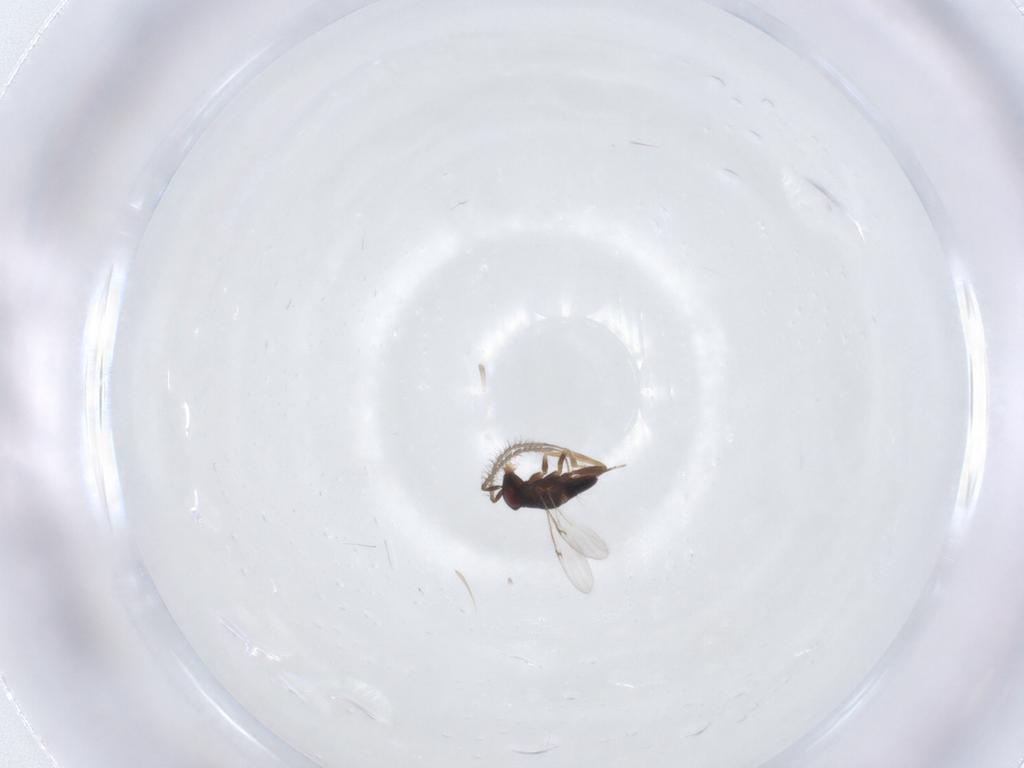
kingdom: Animalia
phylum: Arthropoda
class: Insecta
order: Hymenoptera
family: Encyrtidae
